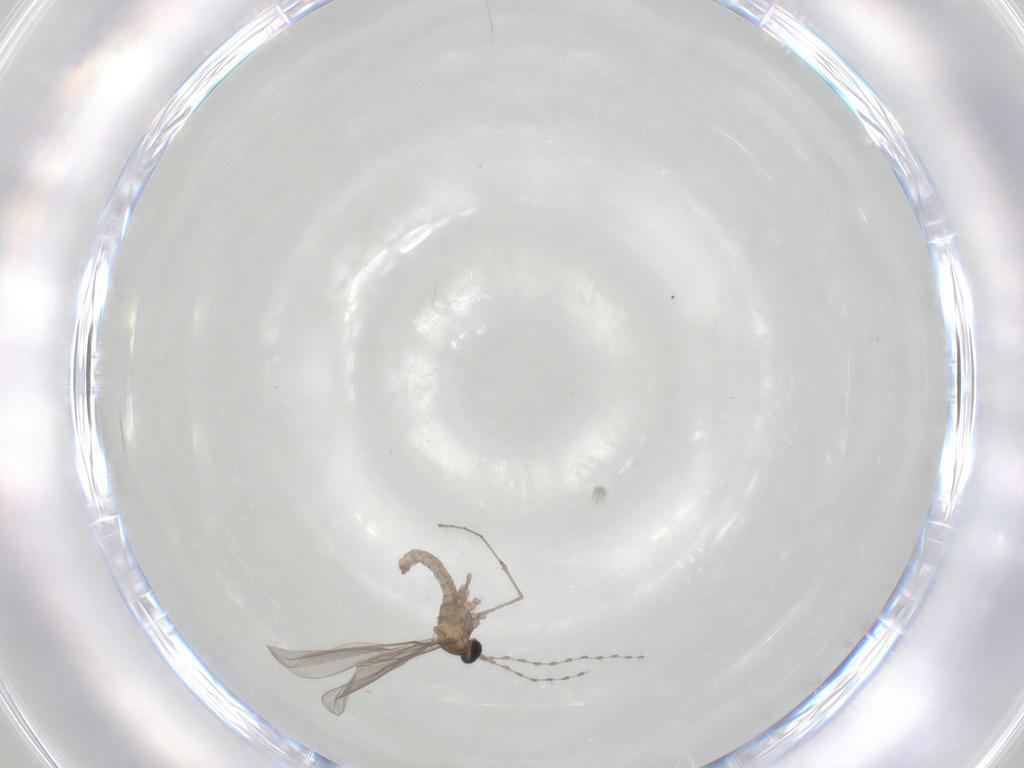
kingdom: Animalia
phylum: Arthropoda
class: Insecta
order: Diptera
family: Cecidomyiidae
